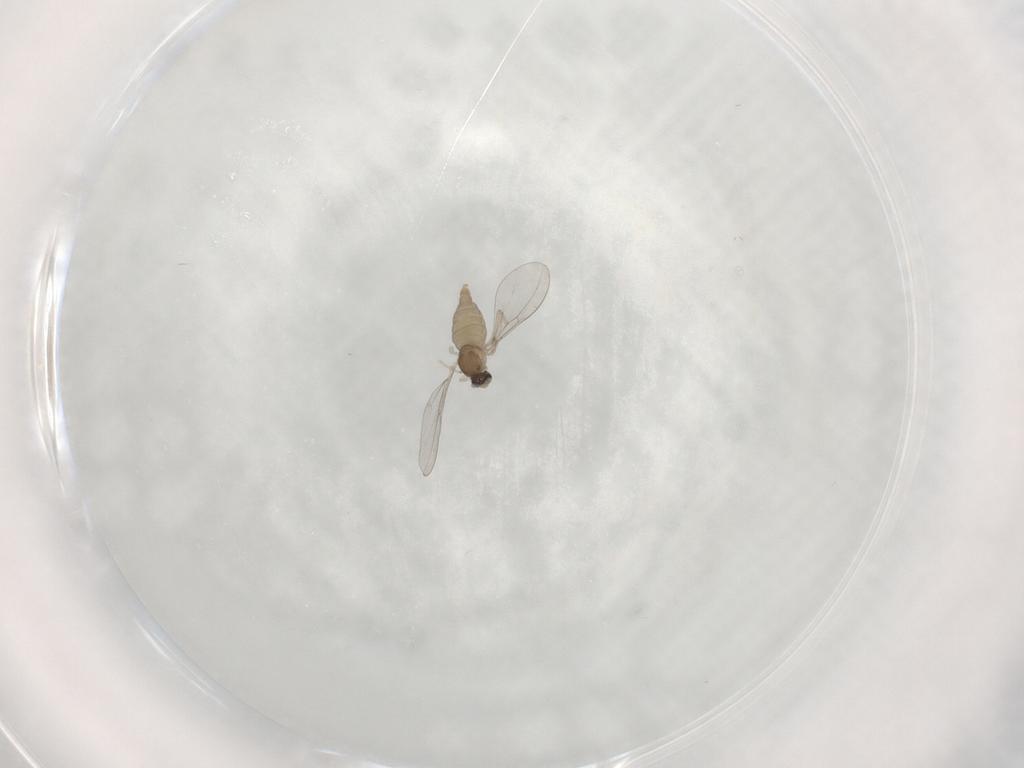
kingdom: Animalia
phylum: Arthropoda
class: Insecta
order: Diptera
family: Cecidomyiidae
